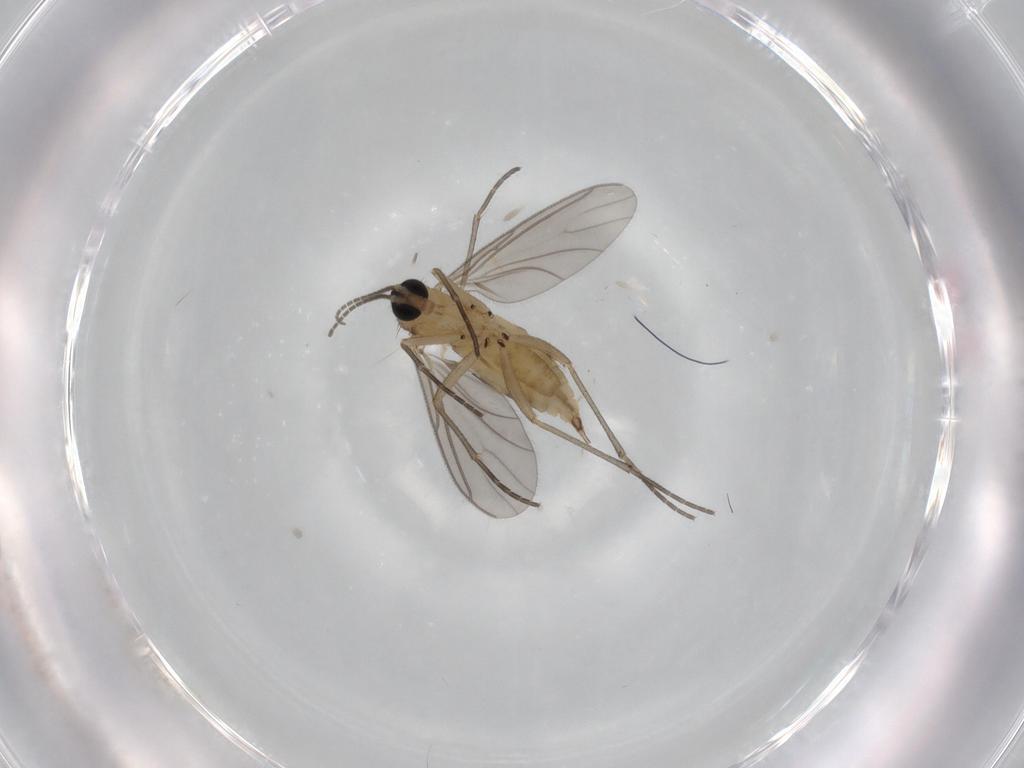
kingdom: Animalia
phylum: Arthropoda
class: Insecta
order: Diptera
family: Sciaridae
